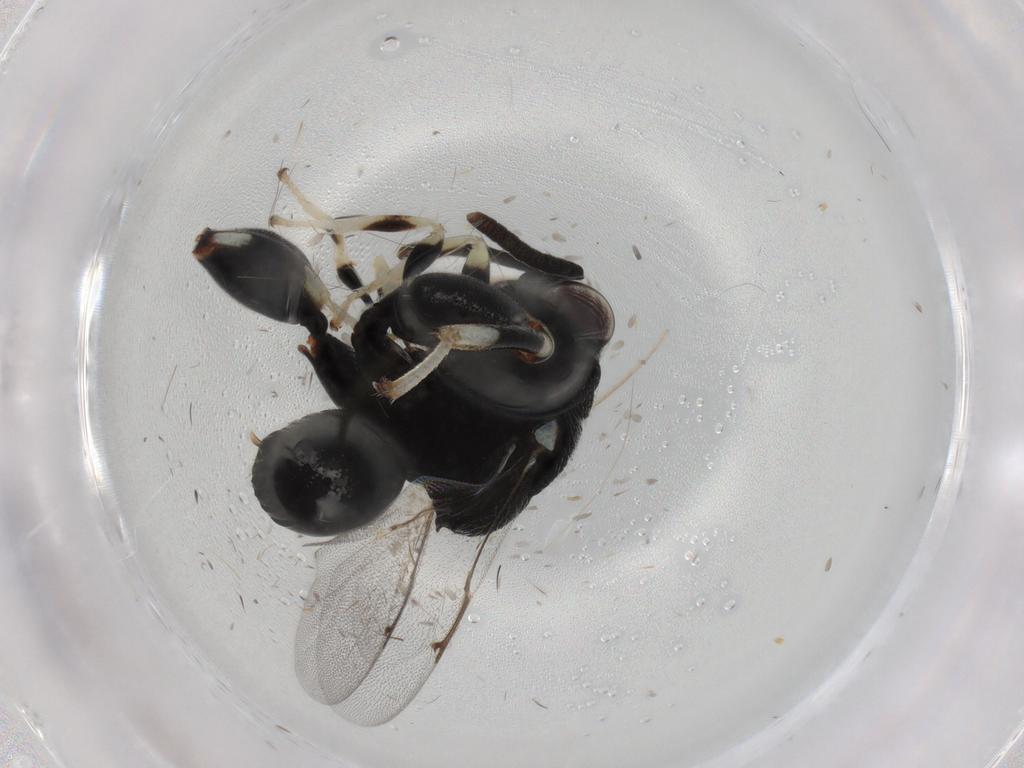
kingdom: Animalia
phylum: Arthropoda
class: Insecta
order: Hymenoptera
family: Chalcididae
